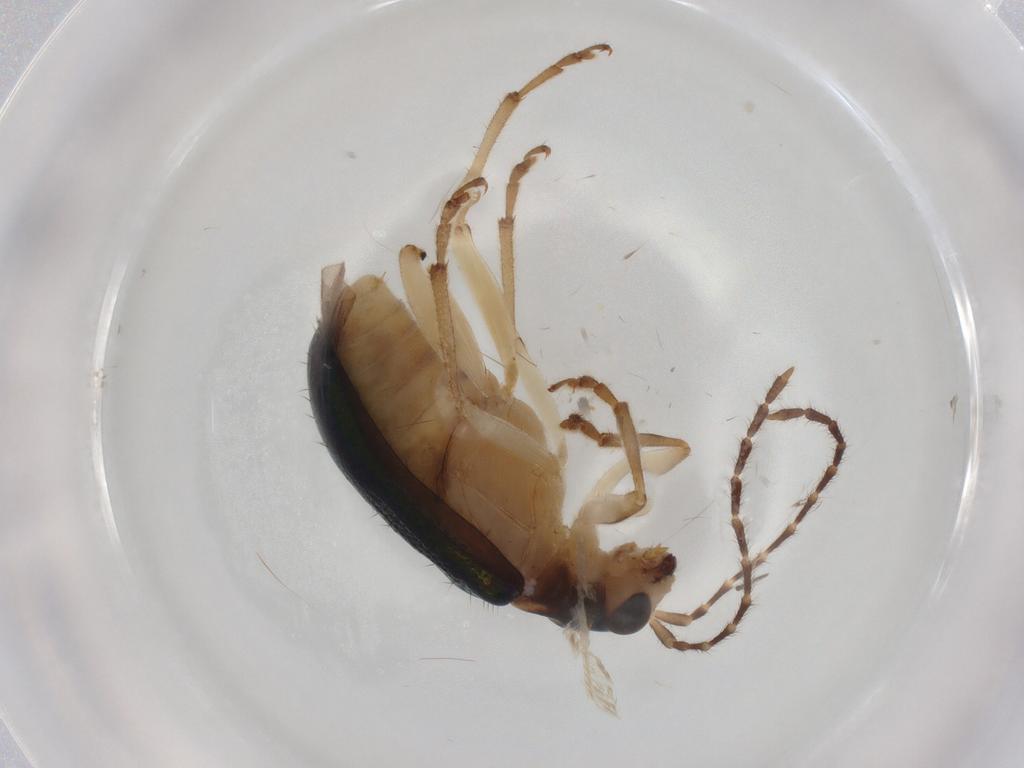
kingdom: Animalia
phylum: Arthropoda
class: Insecta
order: Coleoptera
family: Chrysomelidae
